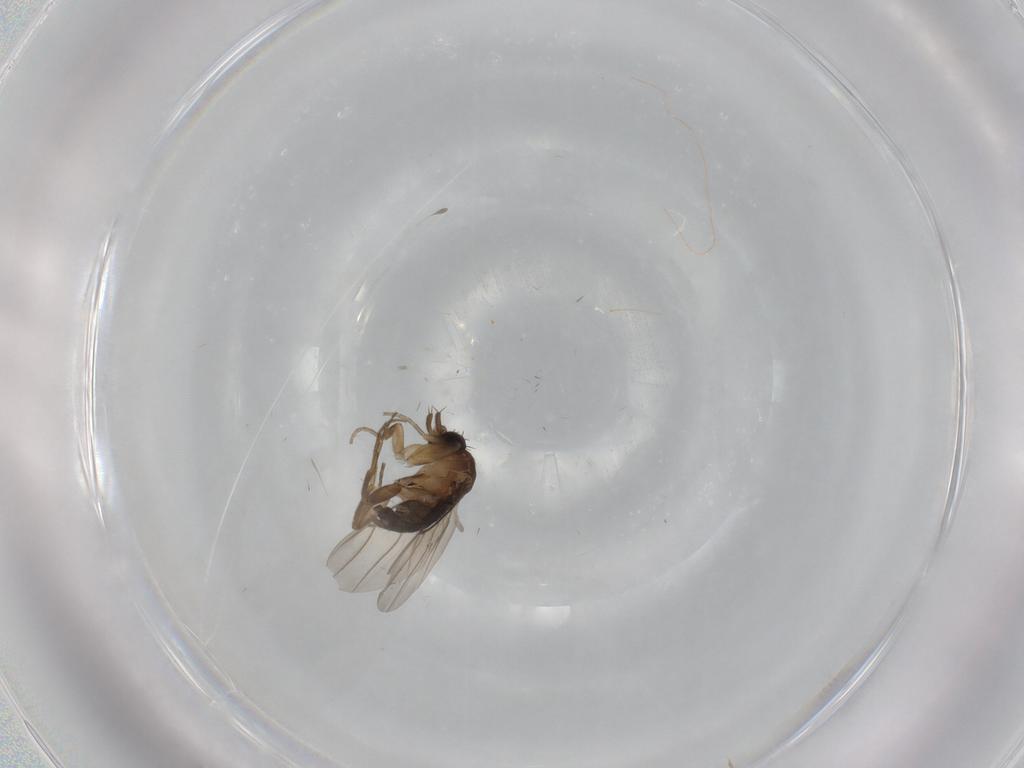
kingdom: Animalia
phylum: Arthropoda
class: Insecta
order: Diptera
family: Phoridae
